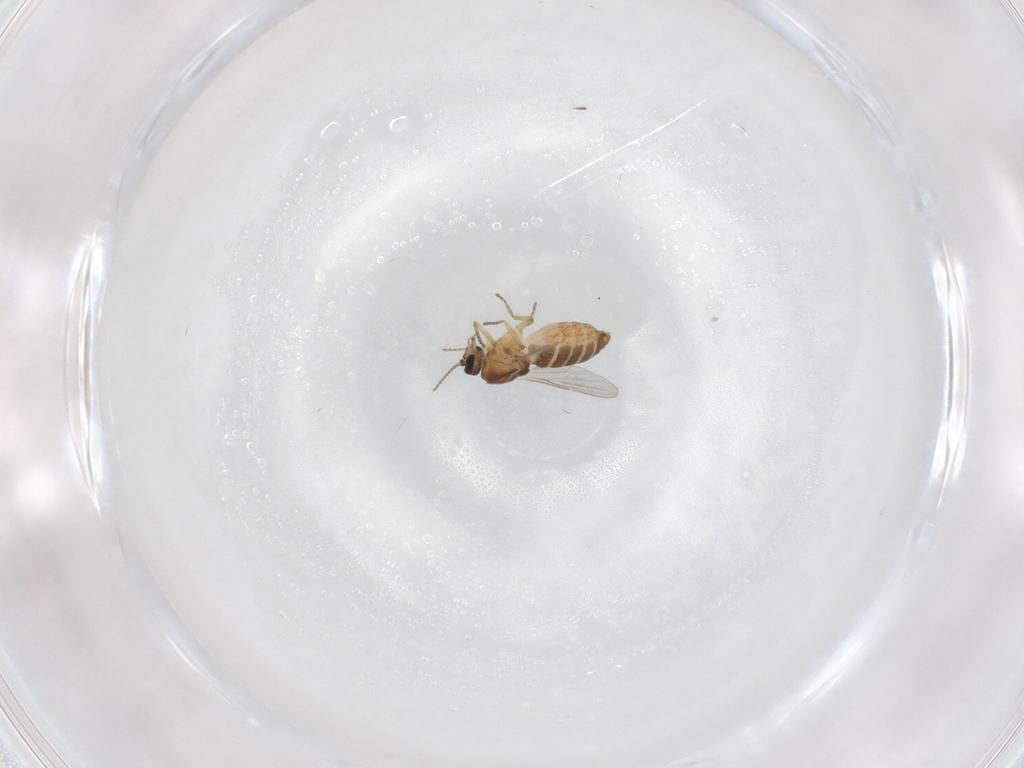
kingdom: Animalia
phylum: Arthropoda
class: Insecta
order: Diptera
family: Ceratopogonidae
